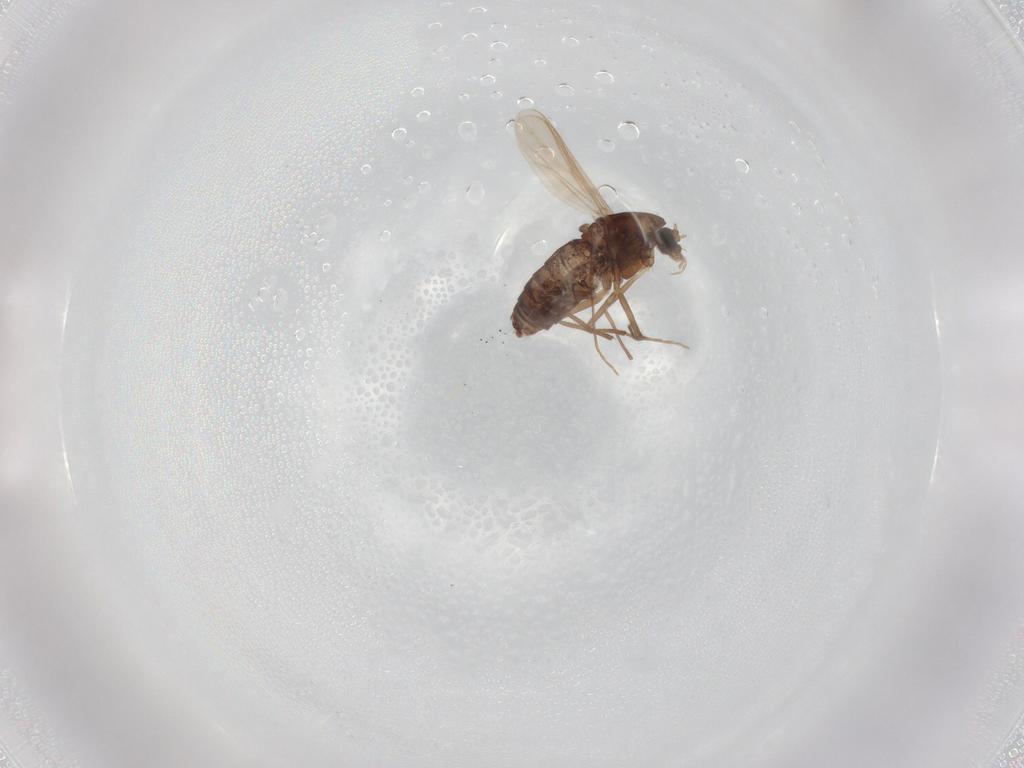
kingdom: Animalia
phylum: Arthropoda
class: Insecta
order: Diptera
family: Chironomidae
